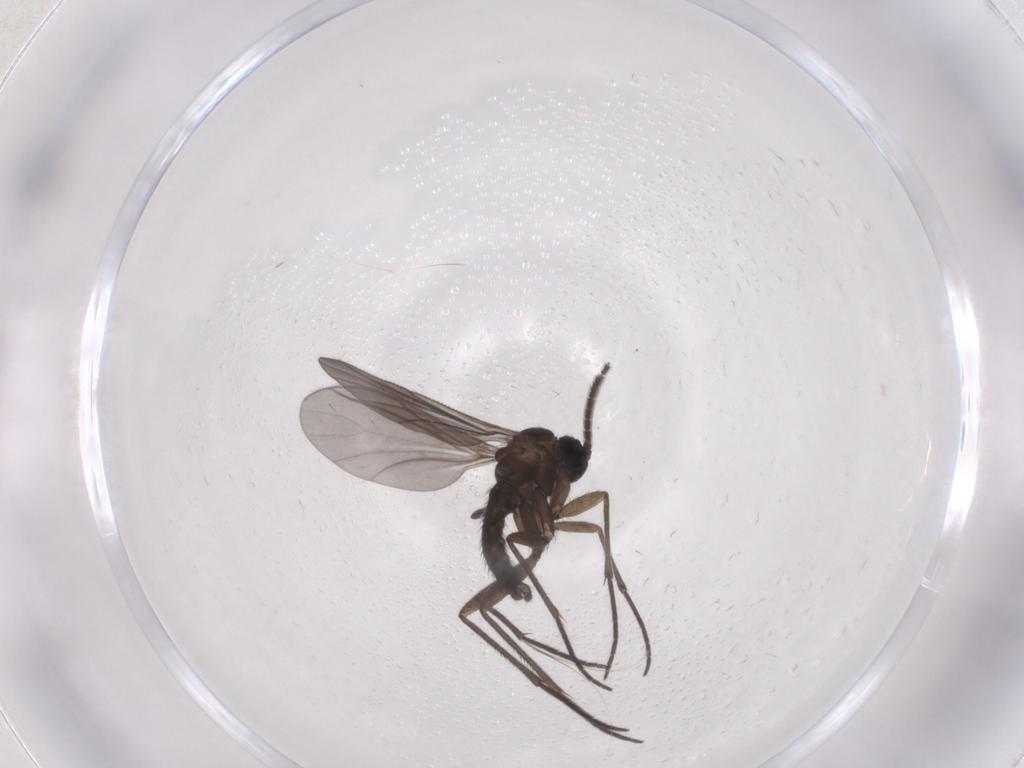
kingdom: Animalia
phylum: Arthropoda
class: Insecta
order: Diptera
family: Sciaridae
